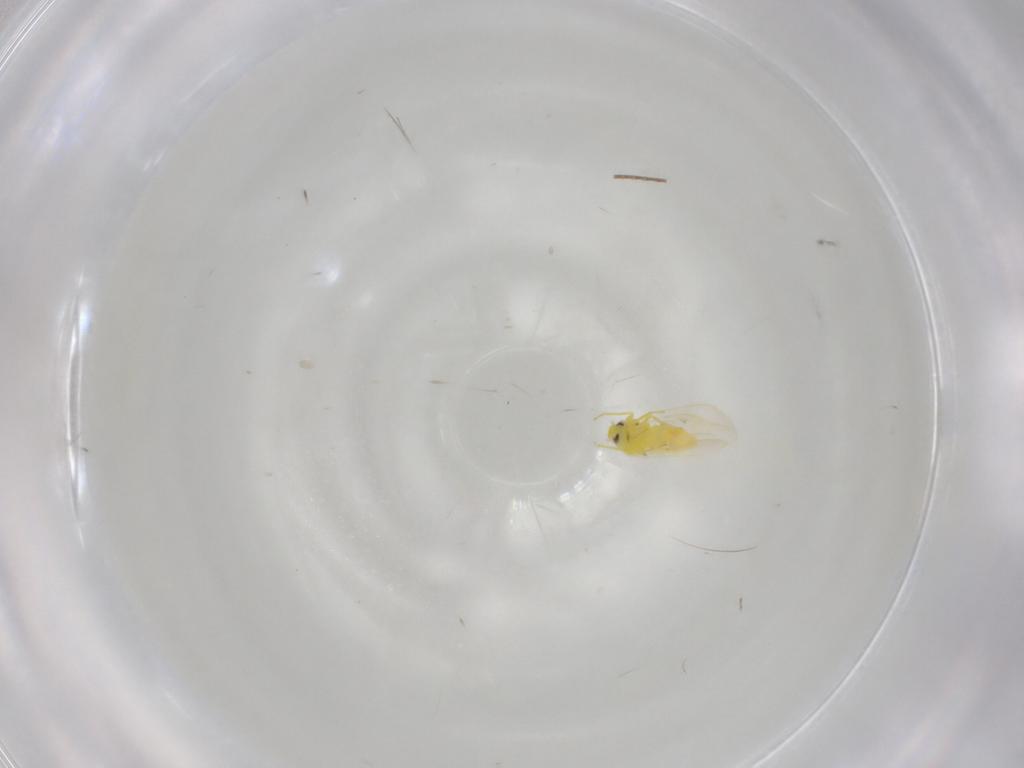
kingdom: Animalia
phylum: Arthropoda
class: Insecta
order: Hemiptera
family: Aleyrodidae
